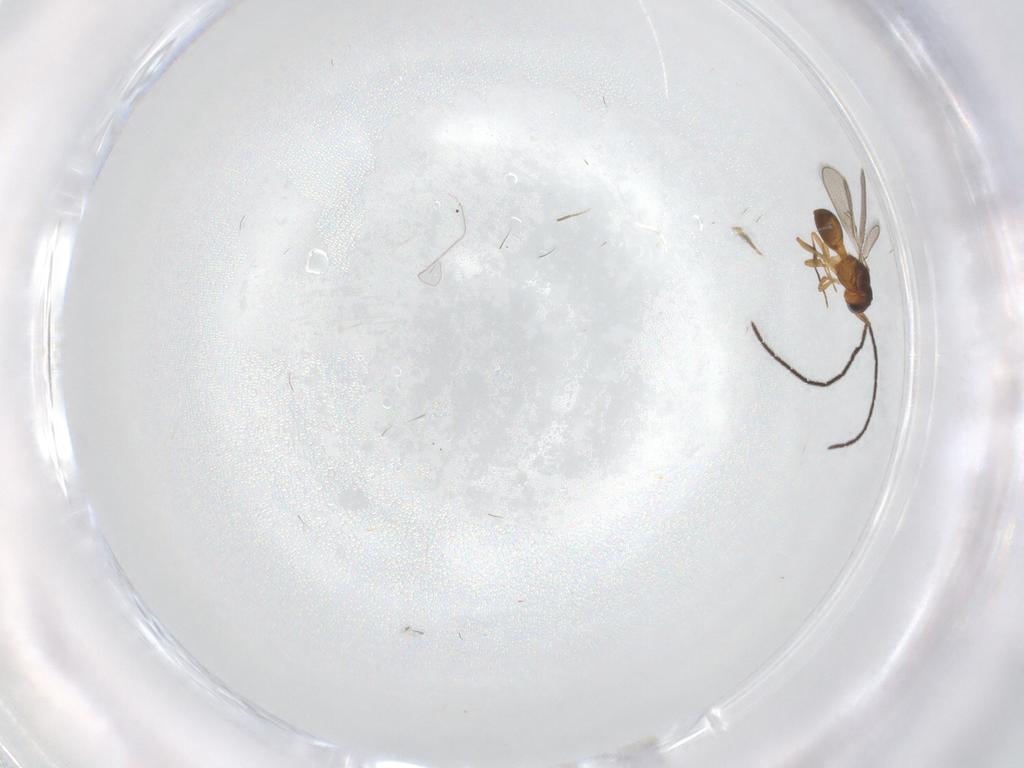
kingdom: Animalia
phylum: Arthropoda
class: Insecta
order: Hymenoptera
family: Scelionidae
